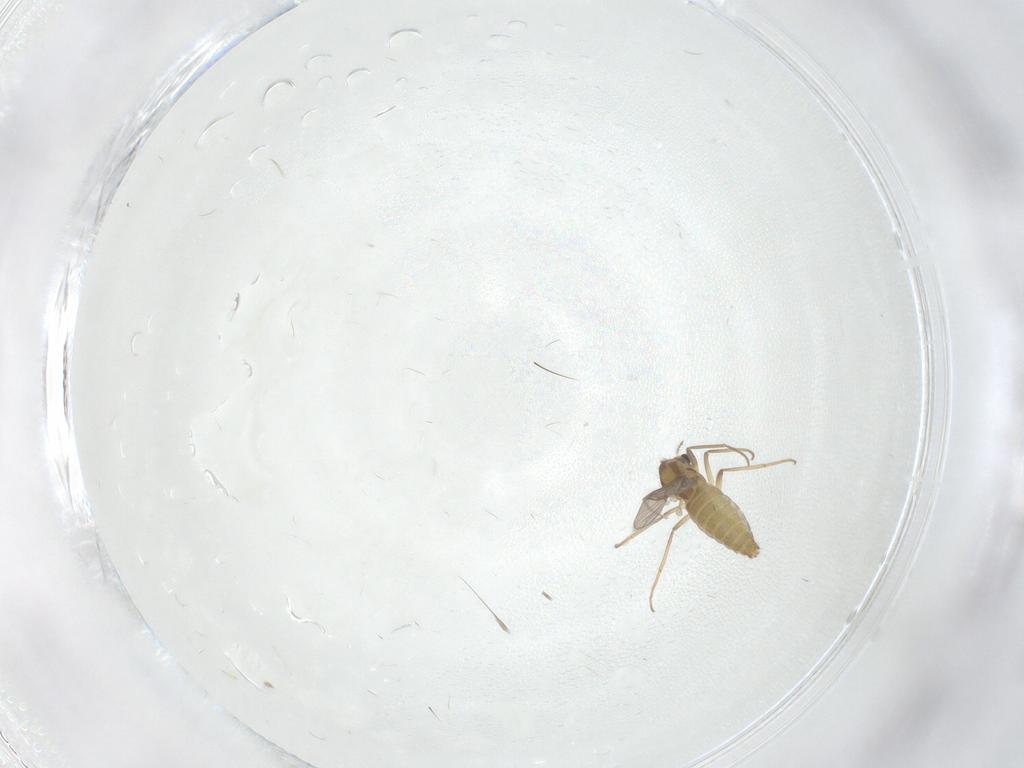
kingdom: Animalia
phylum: Arthropoda
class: Insecta
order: Diptera
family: Chironomidae
